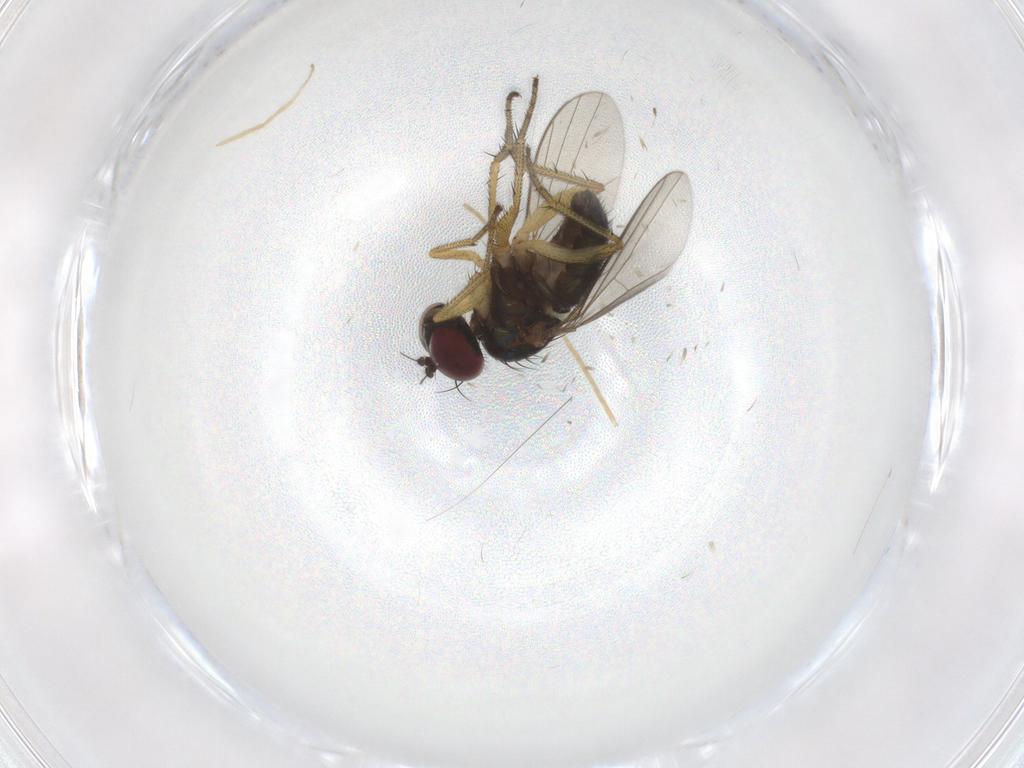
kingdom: Animalia
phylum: Arthropoda
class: Insecta
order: Diptera
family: Chironomidae
